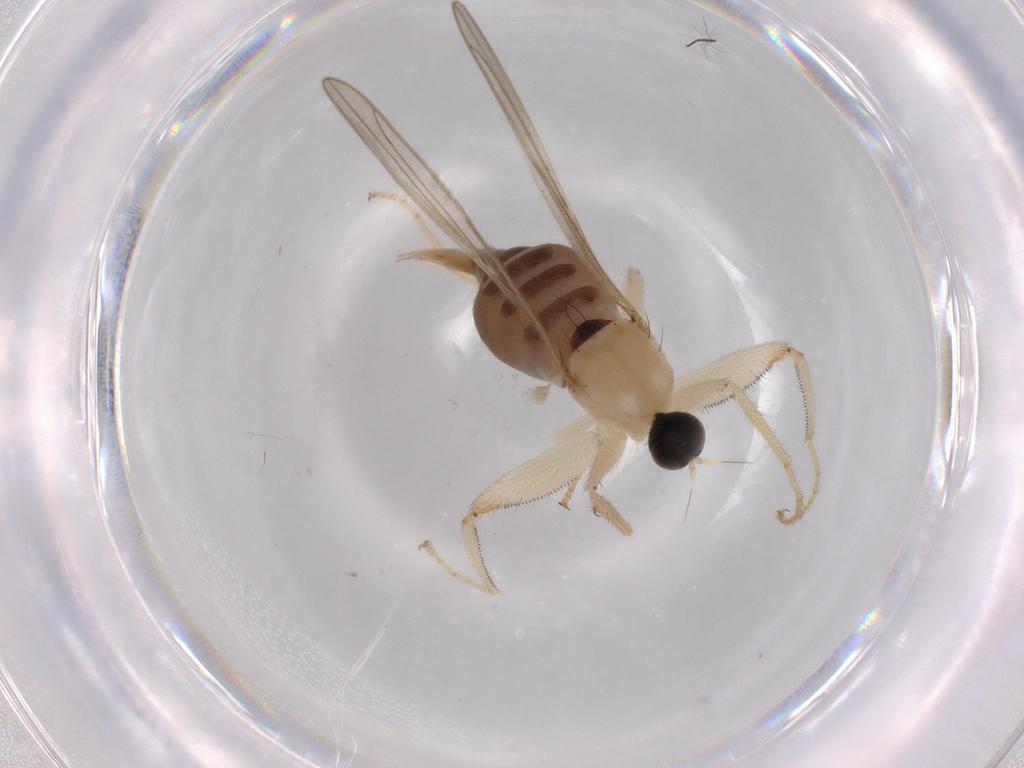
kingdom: Animalia
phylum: Arthropoda
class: Insecta
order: Diptera
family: Hybotidae
